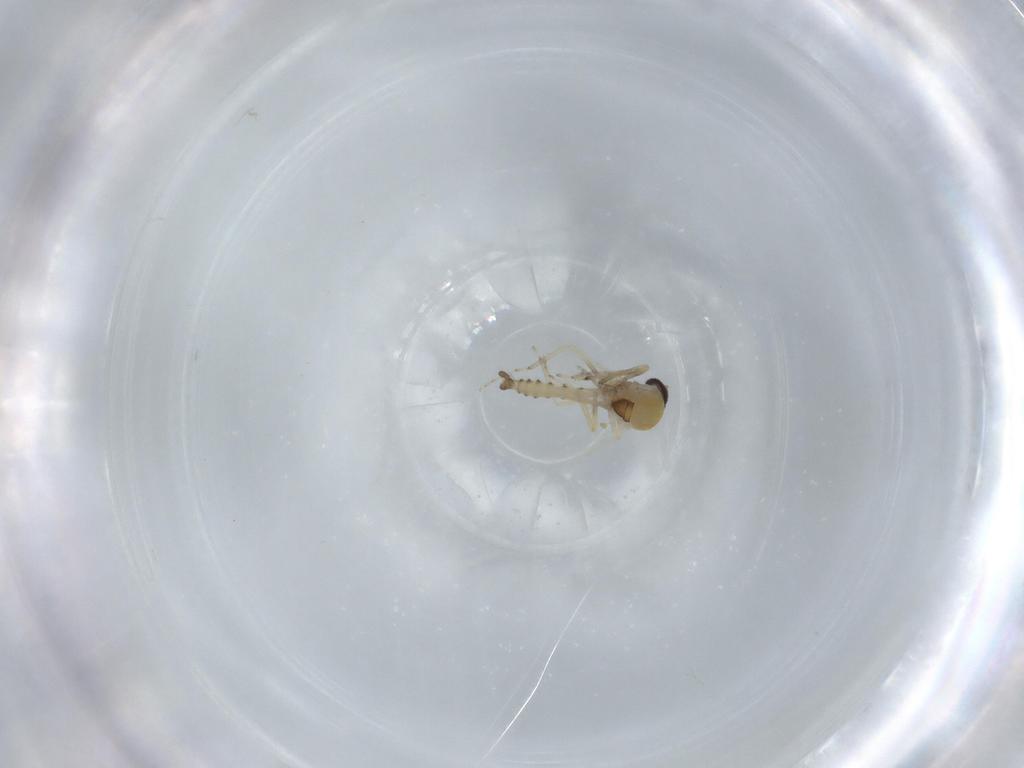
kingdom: Animalia
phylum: Arthropoda
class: Insecta
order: Diptera
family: Ceratopogonidae
